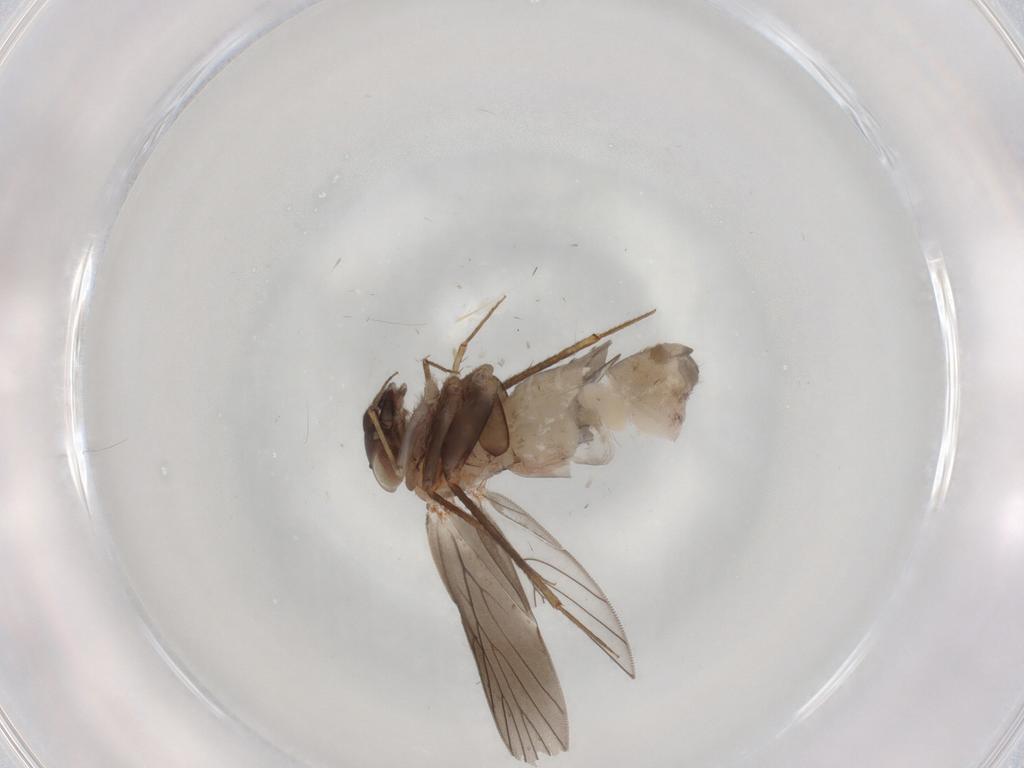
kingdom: Animalia
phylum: Arthropoda
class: Insecta
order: Psocodea
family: Lepidopsocidae
